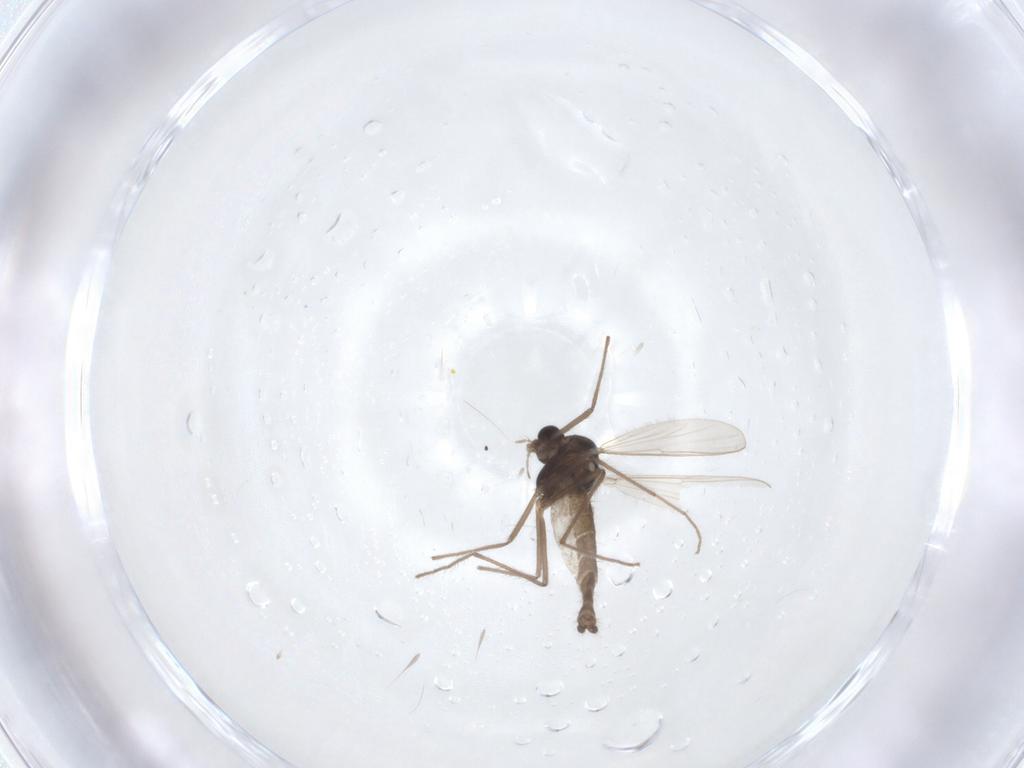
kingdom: Animalia
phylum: Arthropoda
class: Insecta
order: Diptera
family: Chironomidae
